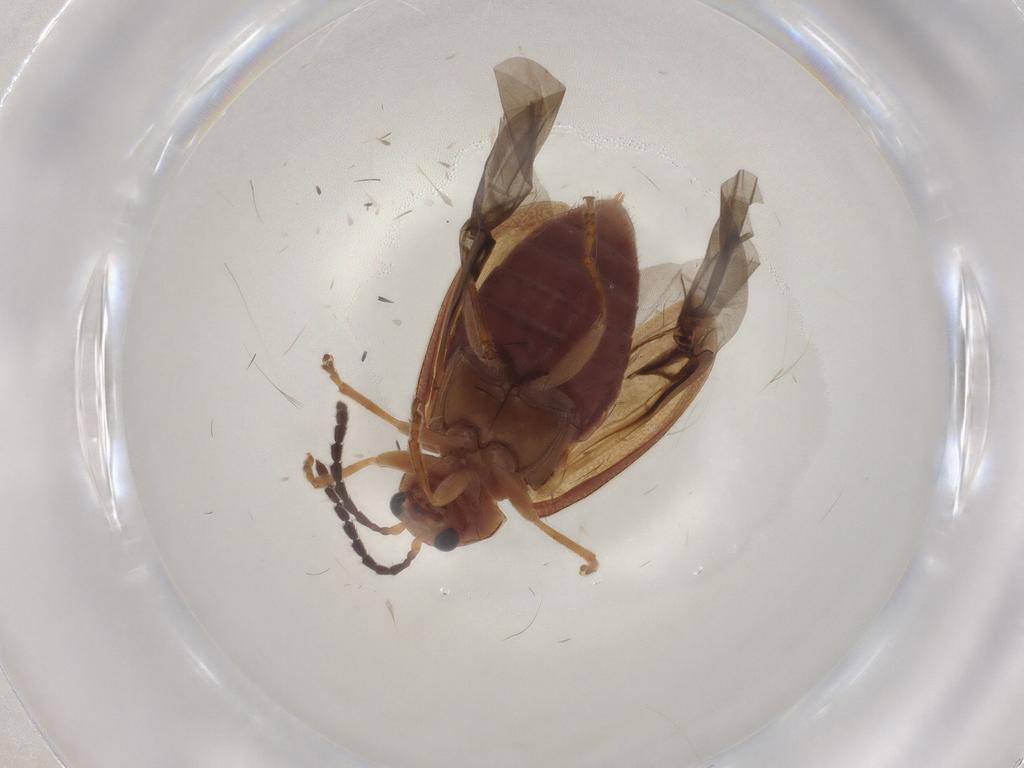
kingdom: Animalia
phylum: Arthropoda
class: Insecta
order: Coleoptera
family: Chrysomelidae
